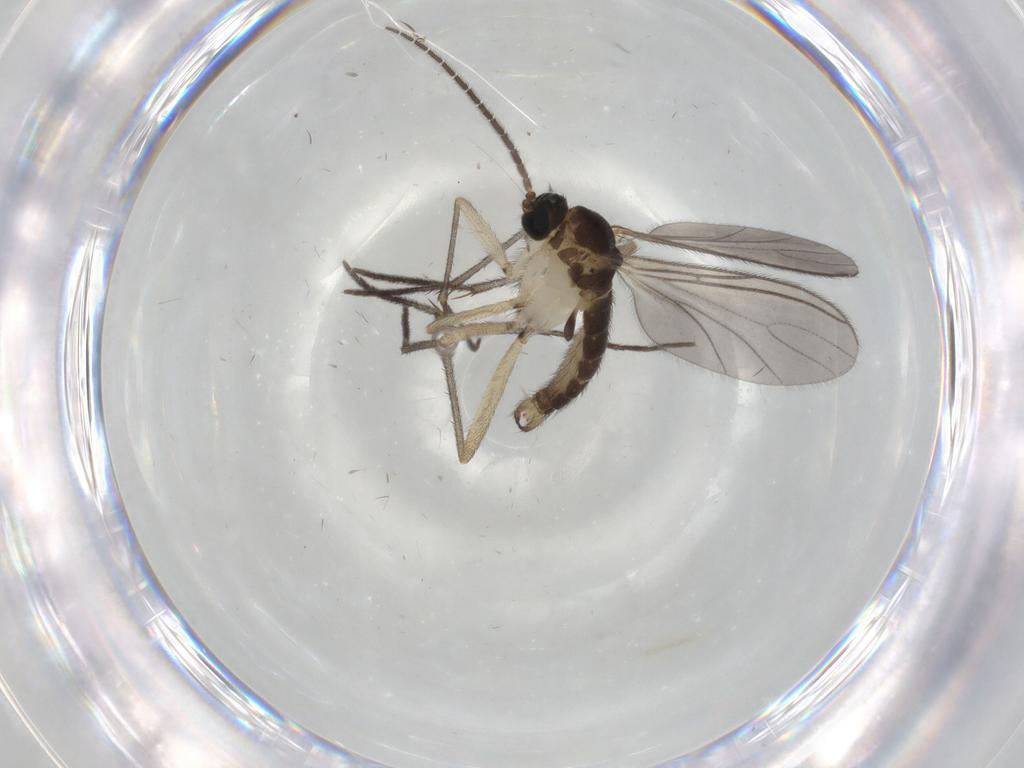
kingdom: Animalia
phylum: Arthropoda
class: Insecta
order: Diptera
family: Sciaridae
